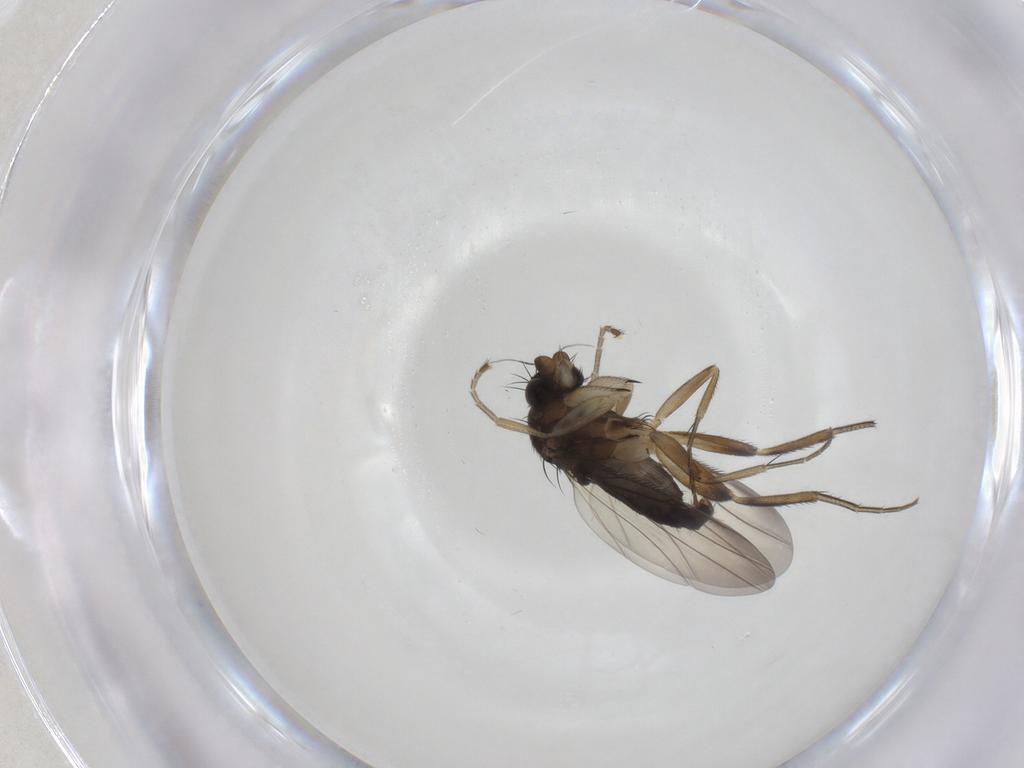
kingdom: Animalia
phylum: Arthropoda
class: Insecta
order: Diptera
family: Phoridae
